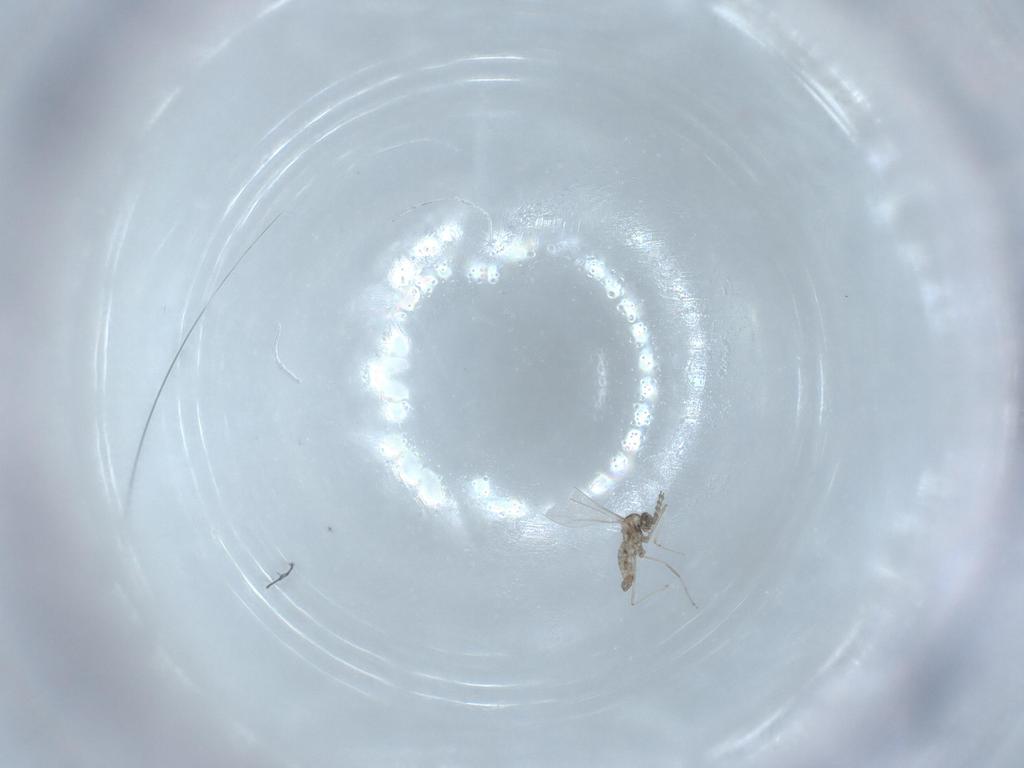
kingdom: Animalia
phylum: Arthropoda
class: Insecta
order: Diptera
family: Cecidomyiidae
